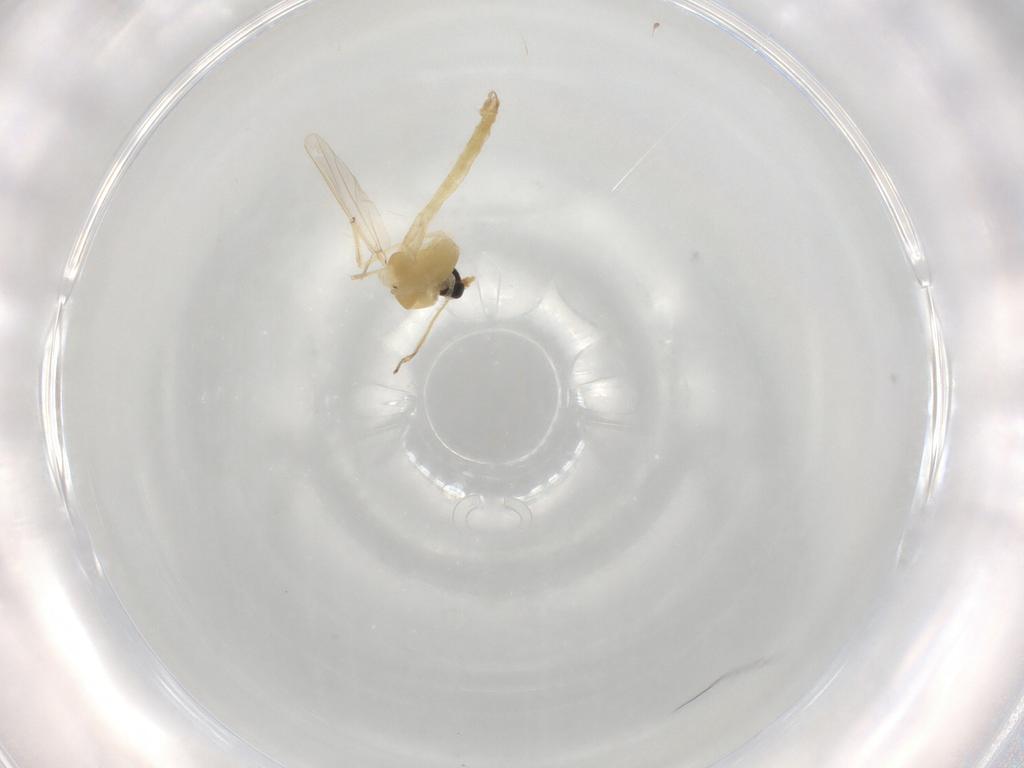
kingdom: Animalia
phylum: Arthropoda
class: Insecta
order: Diptera
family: Chironomidae
